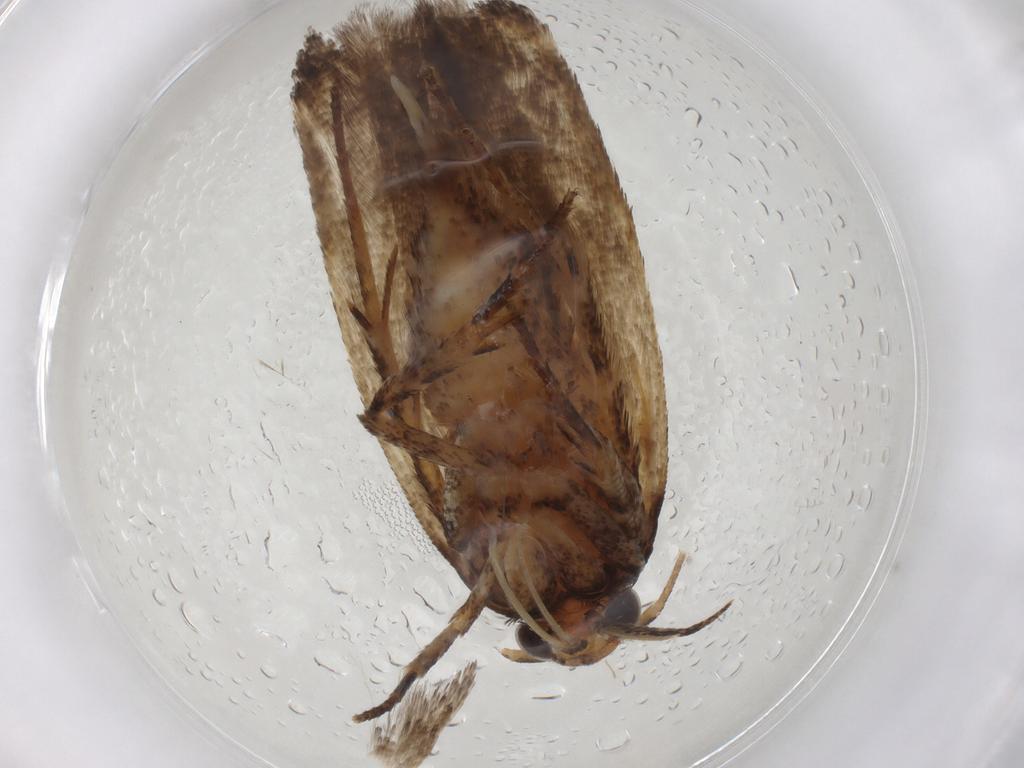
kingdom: Animalia
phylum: Arthropoda
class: Insecta
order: Lepidoptera
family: Gelechiidae
